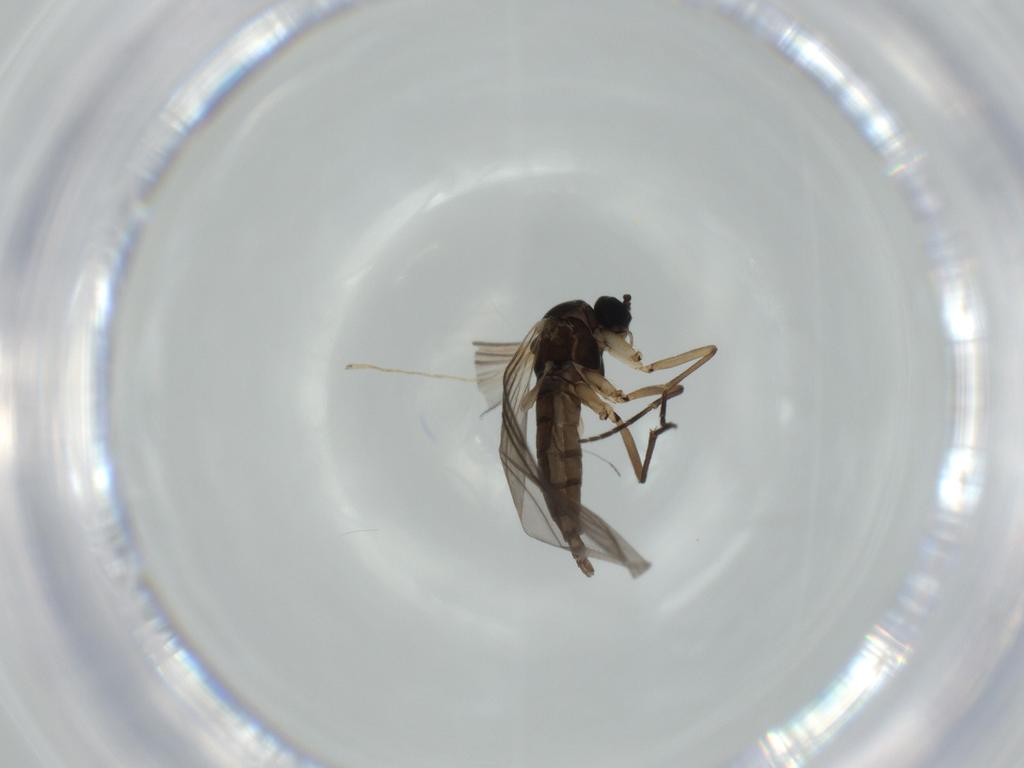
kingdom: Animalia
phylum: Arthropoda
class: Insecta
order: Diptera
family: Sciaridae
